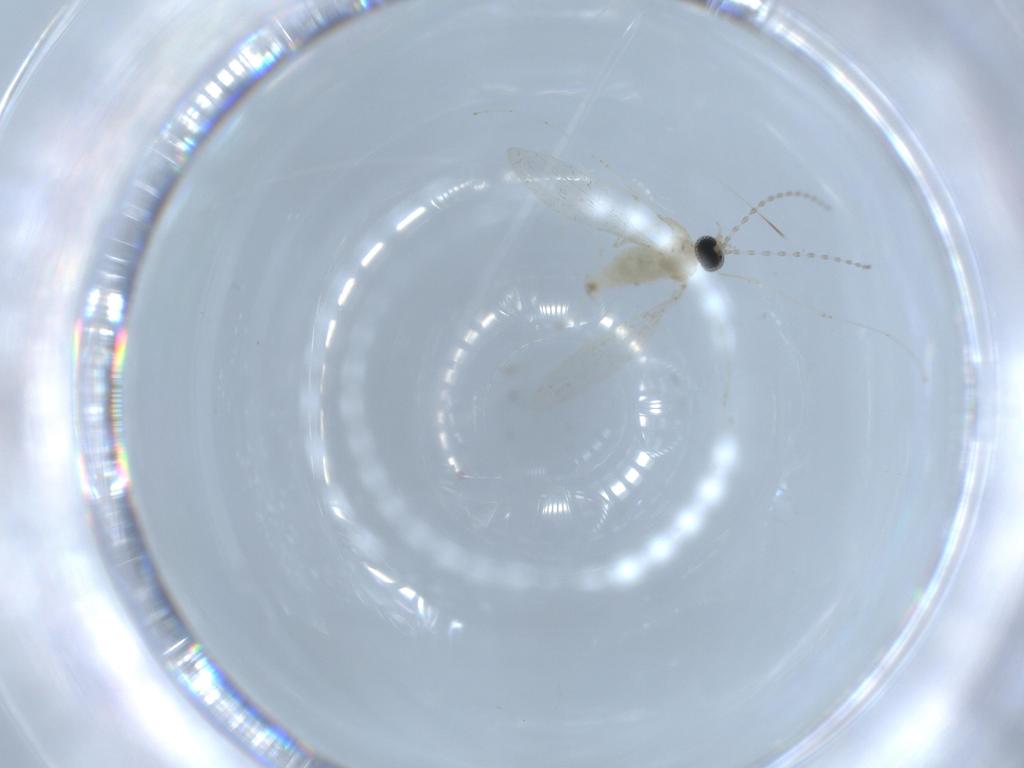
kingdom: Animalia
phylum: Arthropoda
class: Insecta
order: Diptera
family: Cecidomyiidae
